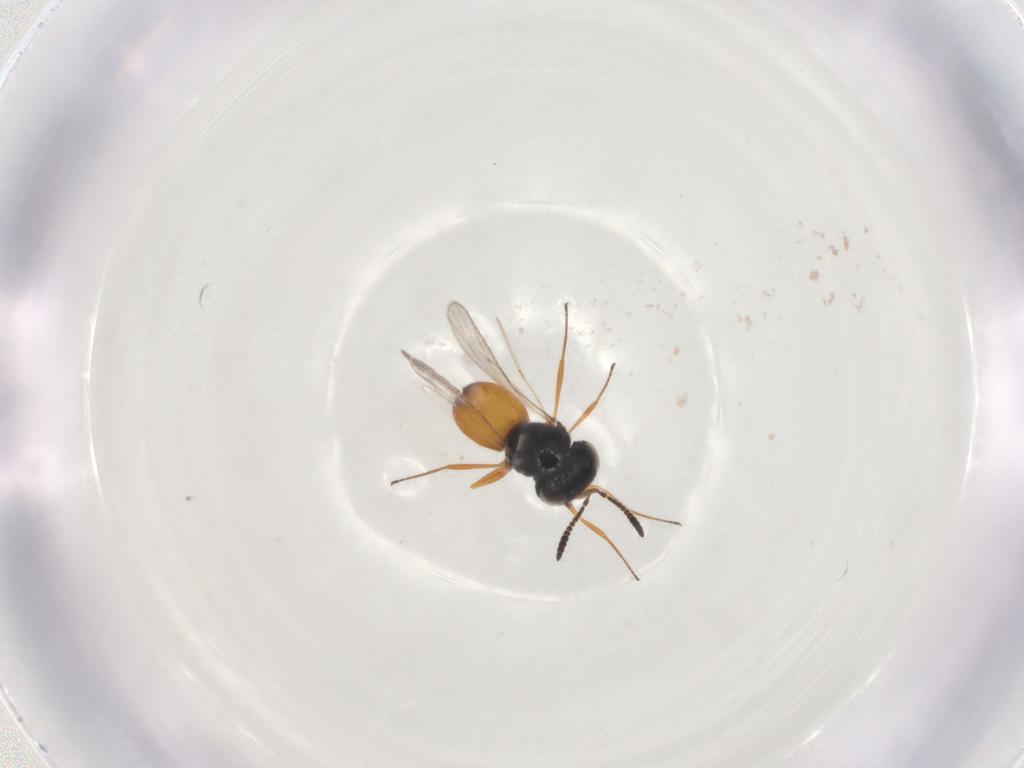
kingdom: Animalia
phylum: Arthropoda
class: Insecta
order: Hymenoptera
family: Scelionidae
